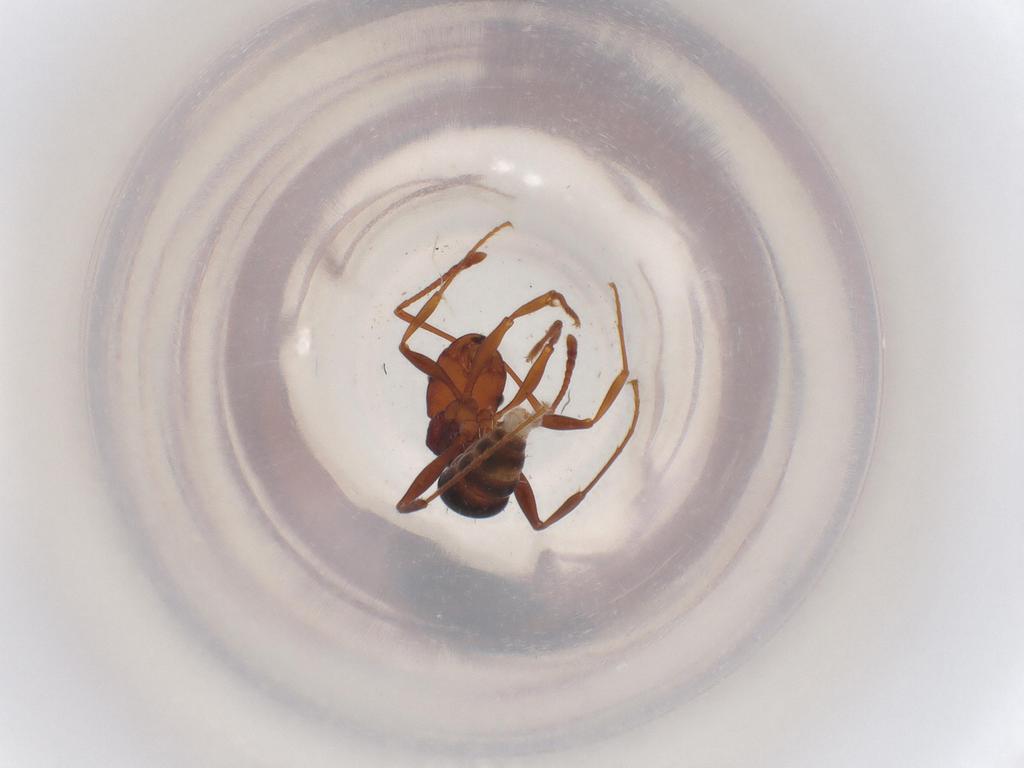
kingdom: Animalia
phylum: Arthropoda
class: Insecta
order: Hymenoptera
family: Formicidae
